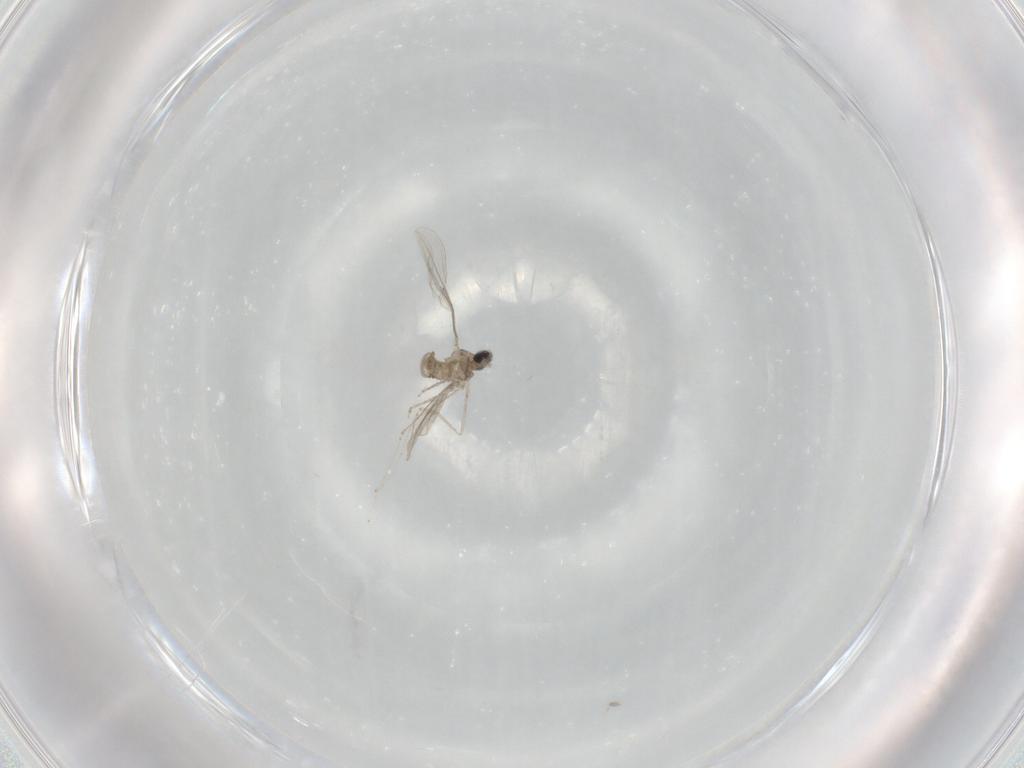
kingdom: Animalia
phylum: Arthropoda
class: Insecta
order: Diptera
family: Cecidomyiidae
